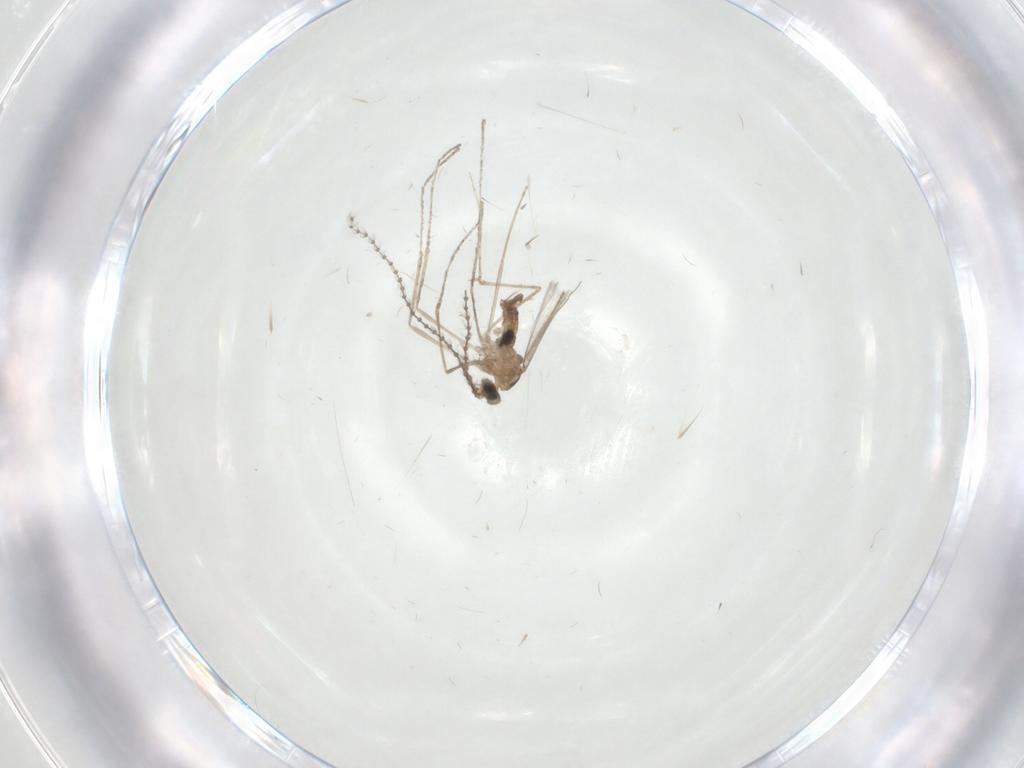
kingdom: Animalia
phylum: Arthropoda
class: Insecta
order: Diptera
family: Cecidomyiidae
